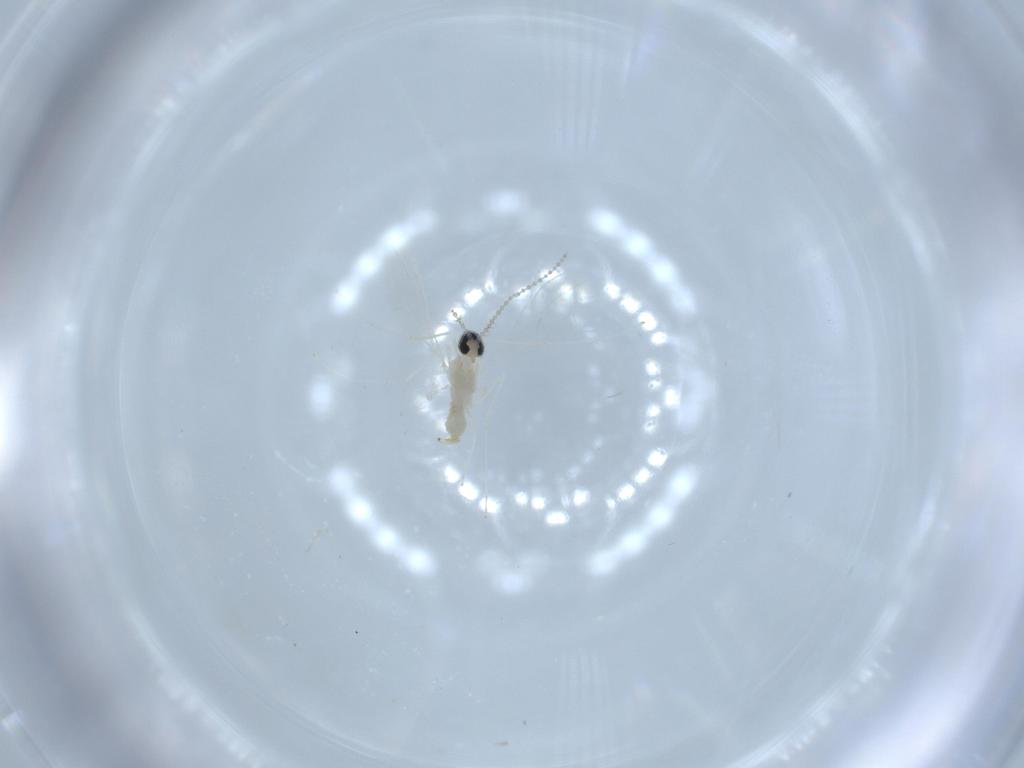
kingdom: Animalia
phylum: Arthropoda
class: Insecta
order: Diptera
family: Cecidomyiidae
